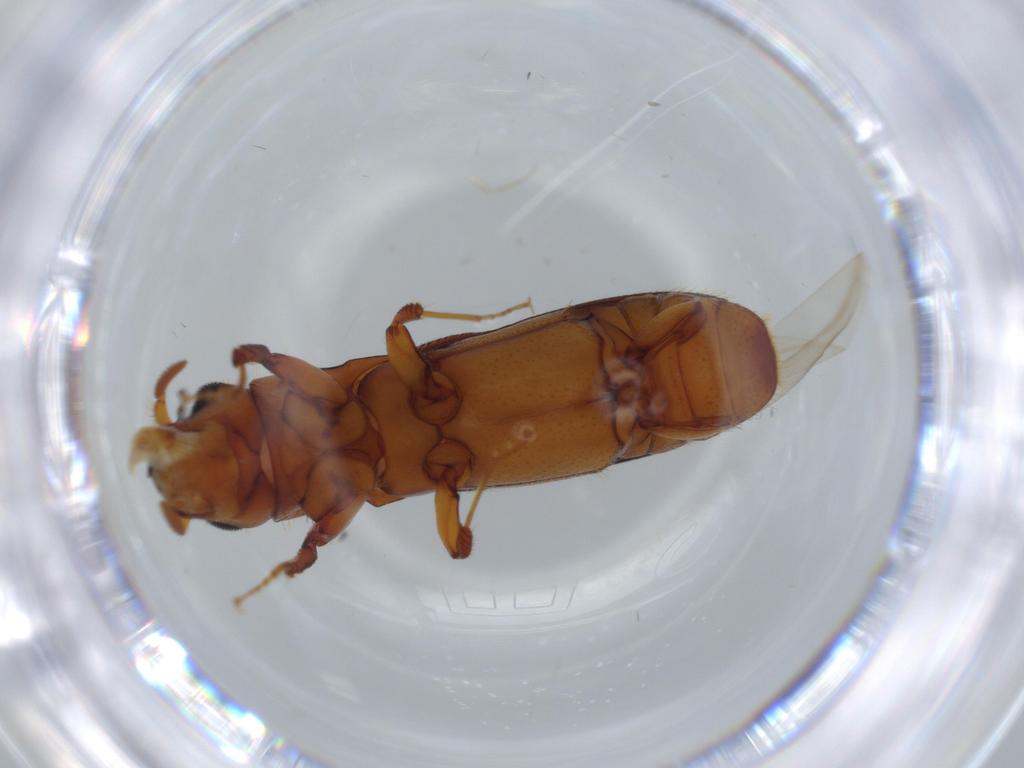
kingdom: Animalia
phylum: Arthropoda
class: Insecta
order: Coleoptera
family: Curculionidae
